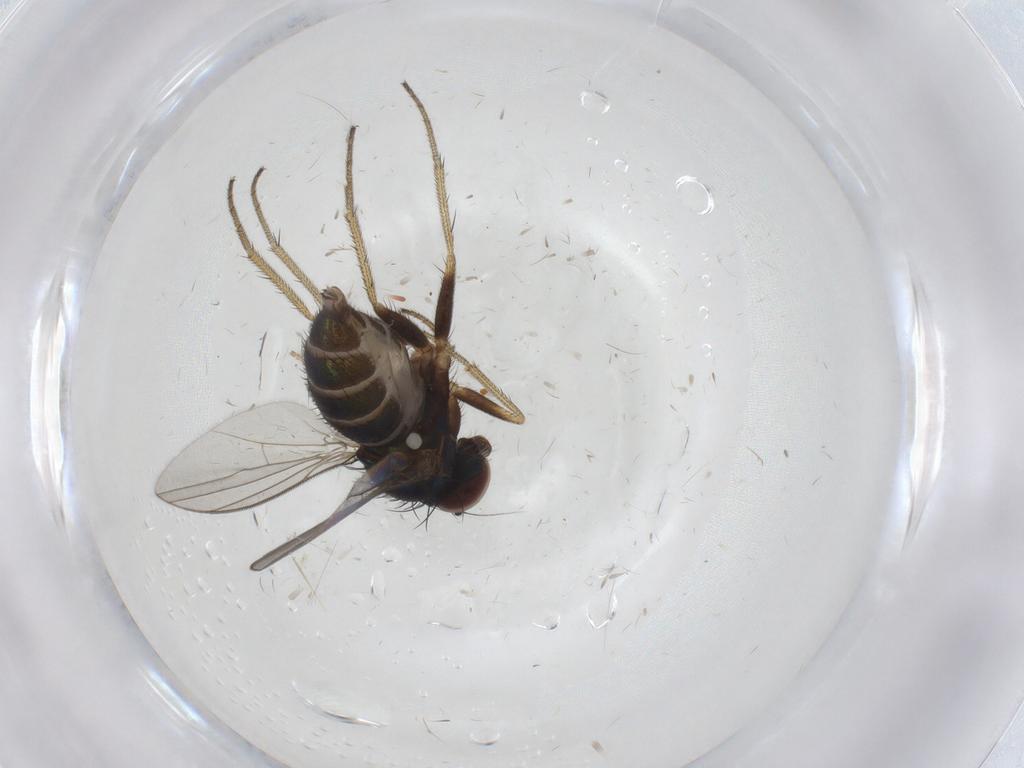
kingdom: Animalia
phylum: Arthropoda
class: Insecta
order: Diptera
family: Dolichopodidae
